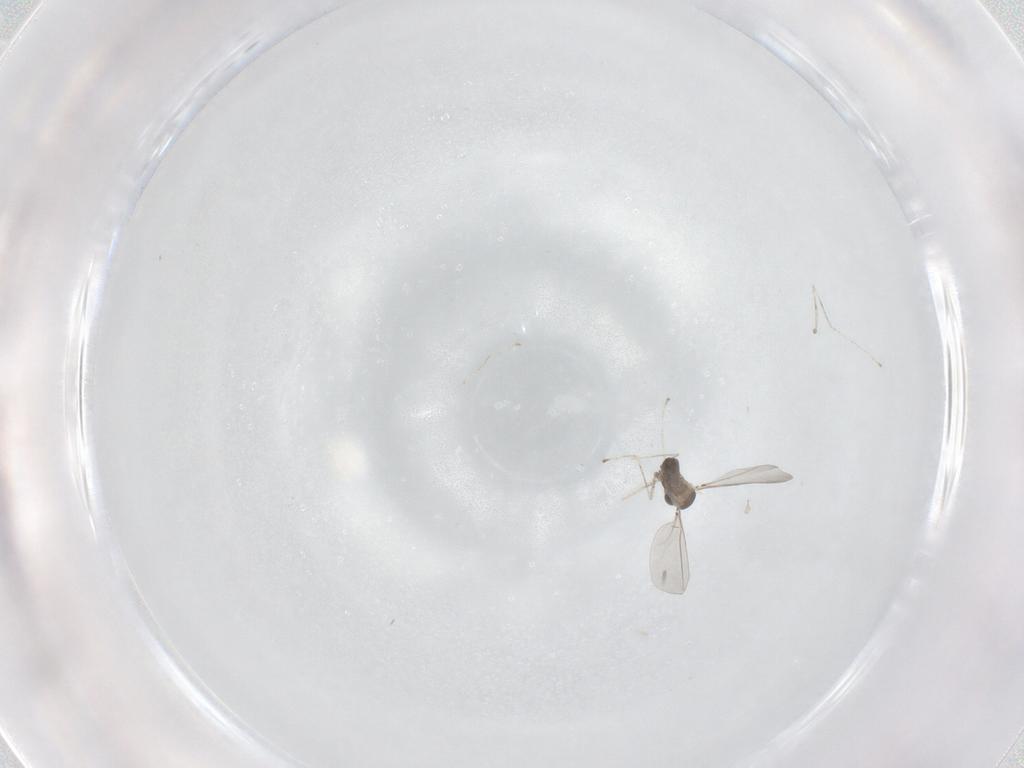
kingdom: Animalia
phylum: Arthropoda
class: Insecta
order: Diptera
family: Cecidomyiidae
